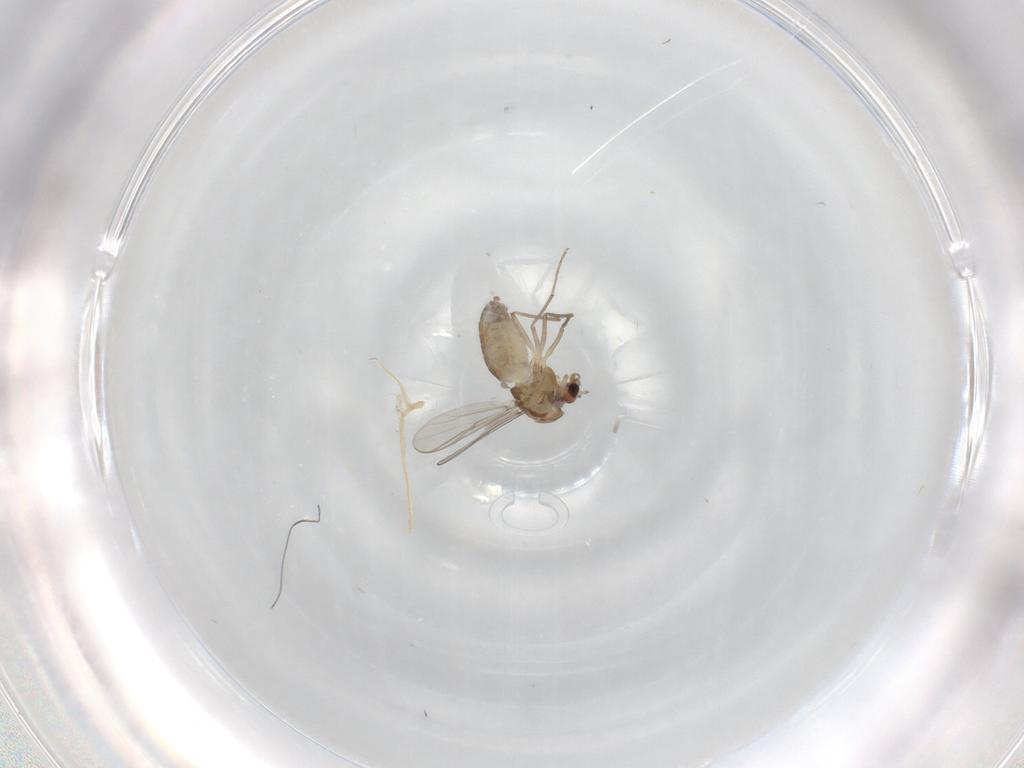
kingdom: Animalia
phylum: Arthropoda
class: Insecta
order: Diptera
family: Chironomidae
